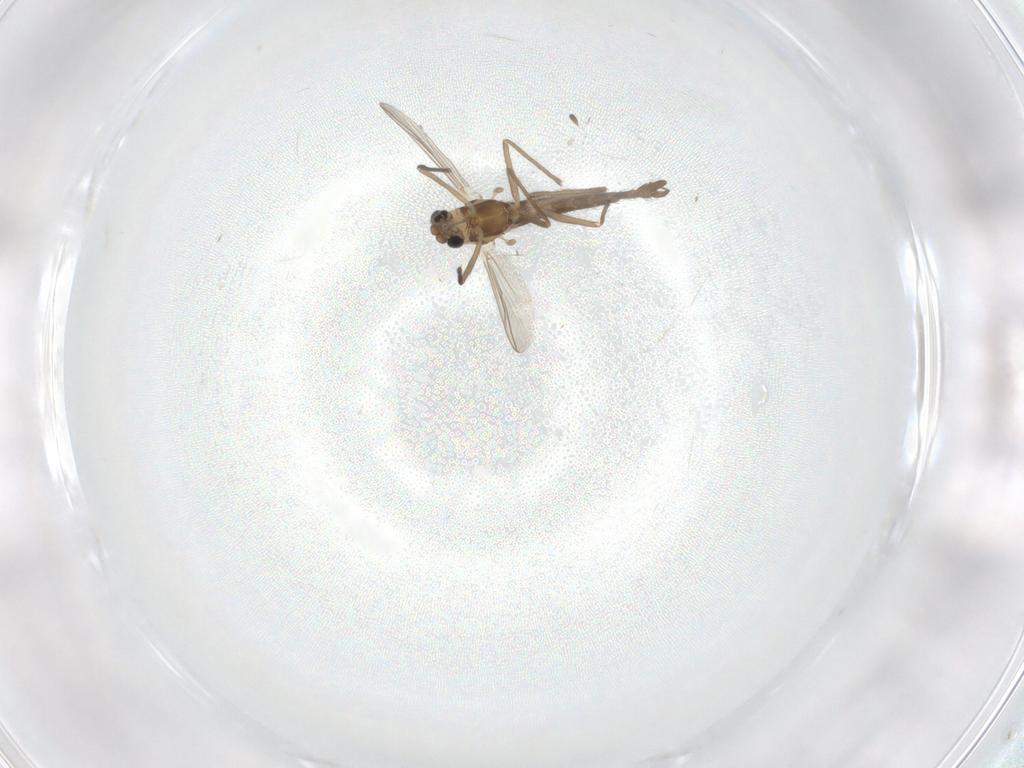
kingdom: Animalia
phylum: Arthropoda
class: Insecta
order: Diptera
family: Chironomidae
